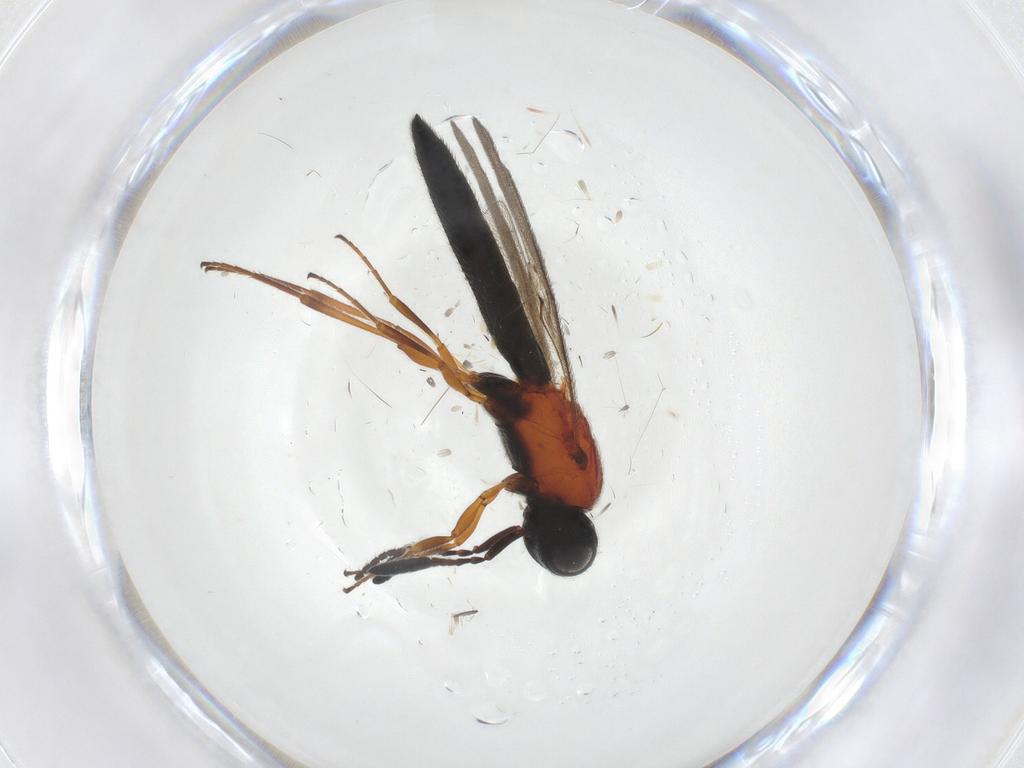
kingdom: Animalia
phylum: Arthropoda
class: Insecta
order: Hymenoptera
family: Scelionidae
